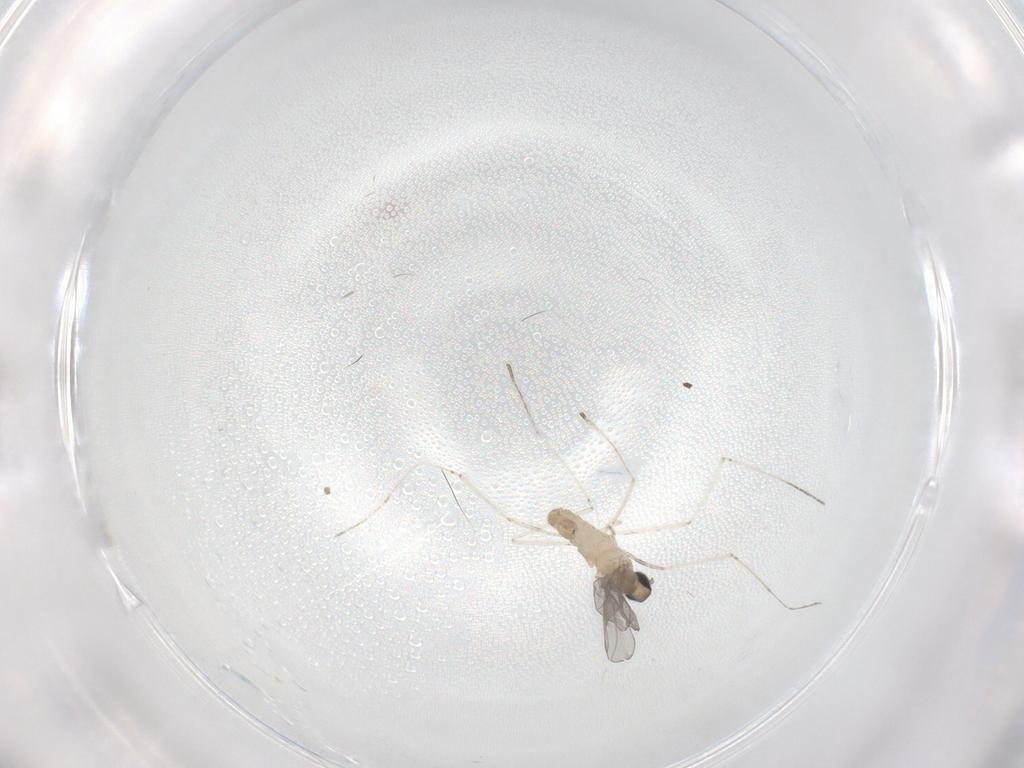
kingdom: Animalia
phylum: Arthropoda
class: Insecta
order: Diptera
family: Cecidomyiidae
